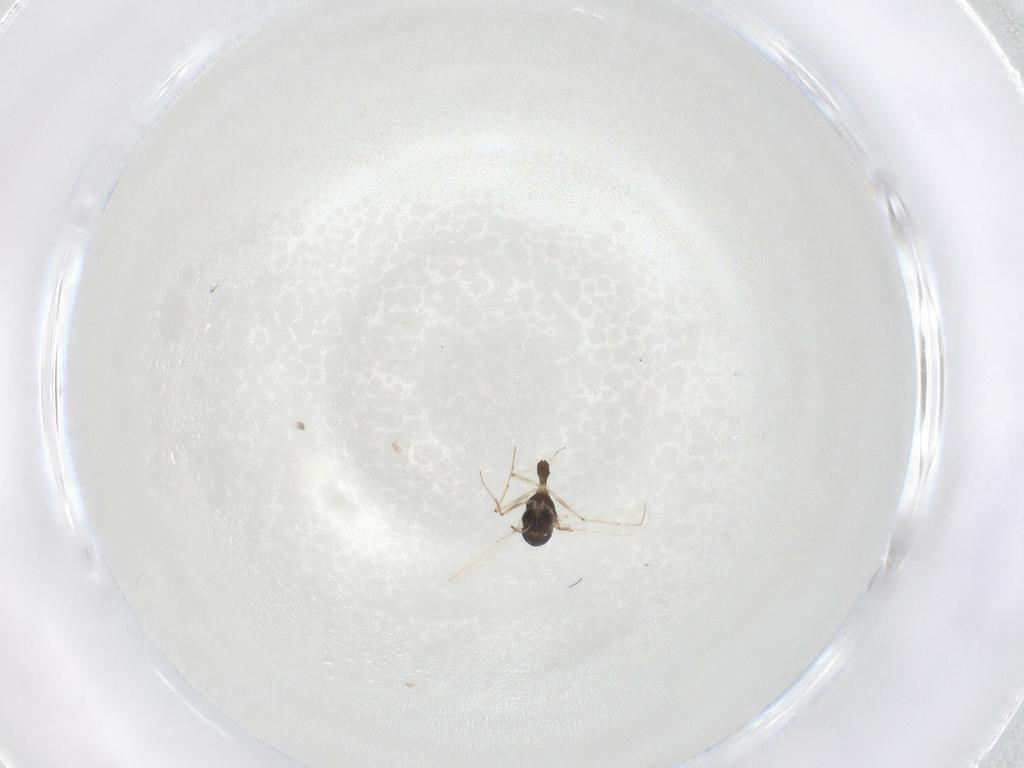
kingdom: Animalia
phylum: Arthropoda
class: Insecta
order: Diptera
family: Chironomidae
